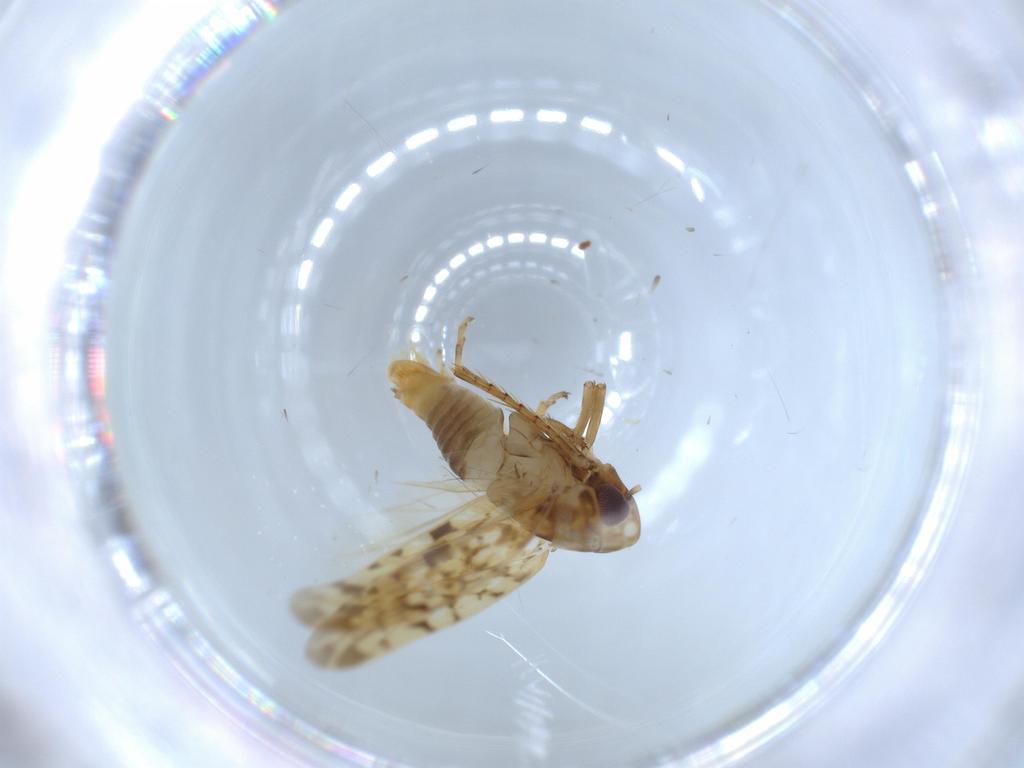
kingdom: Animalia
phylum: Arthropoda
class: Insecta
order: Hemiptera
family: Cicadellidae
